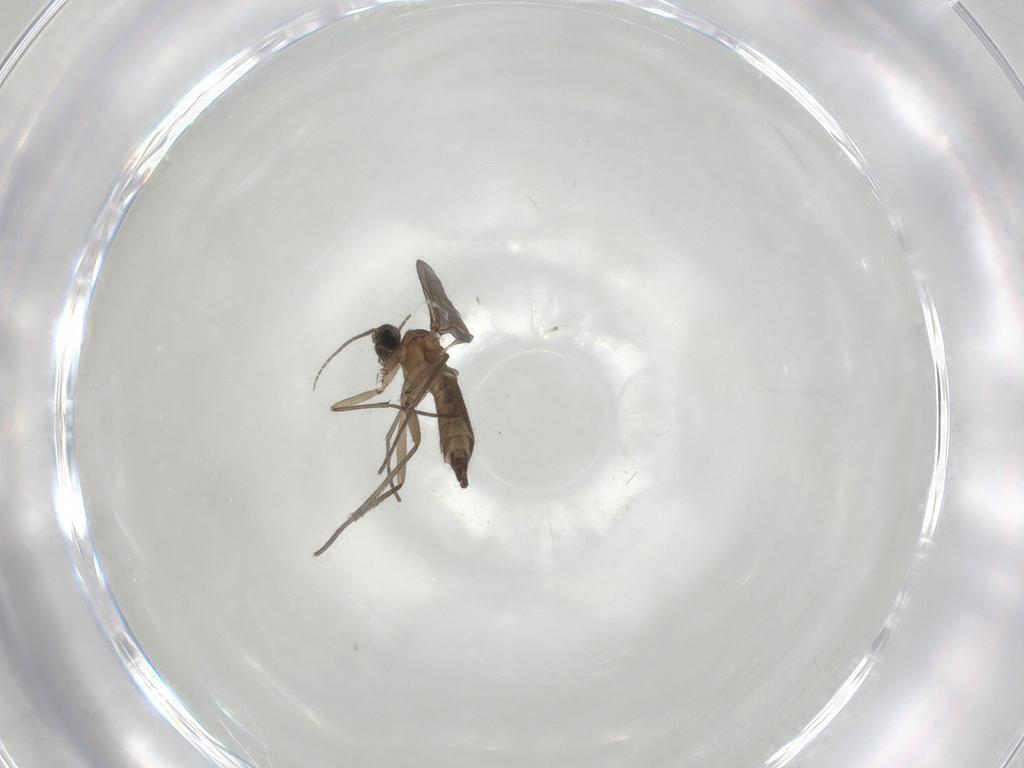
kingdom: Animalia
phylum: Arthropoda
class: Insecta
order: Diptera
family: Sciaridae
